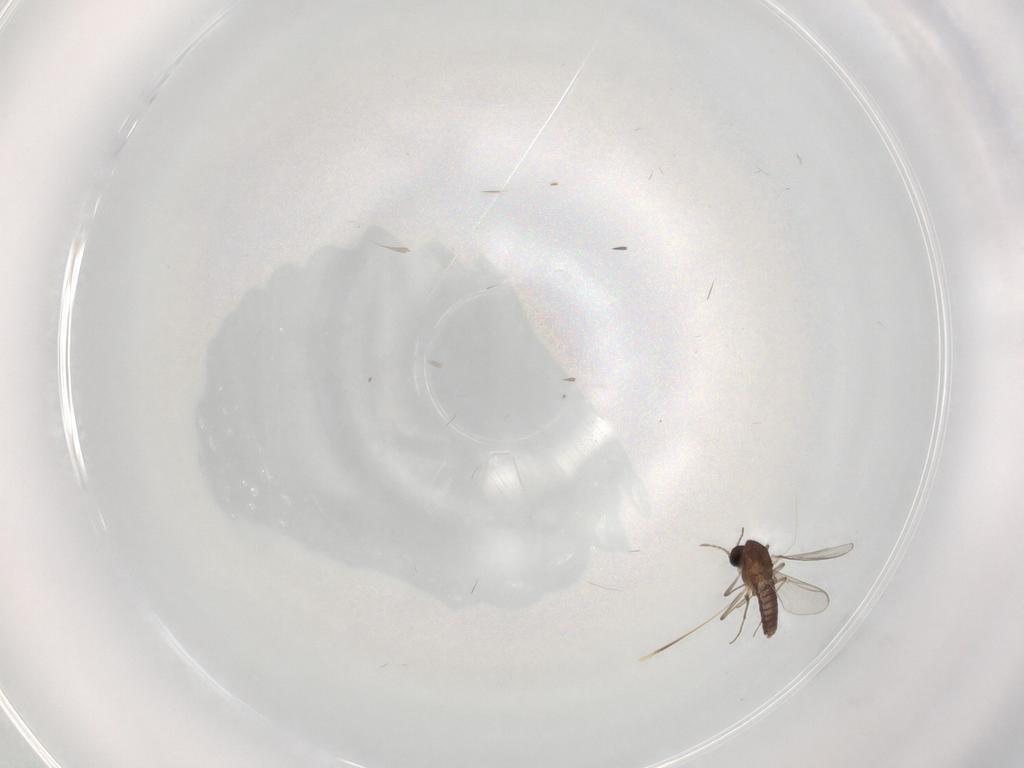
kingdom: Animalia
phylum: Arthropoda
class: Insecta
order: Diptera
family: Chironomidae
